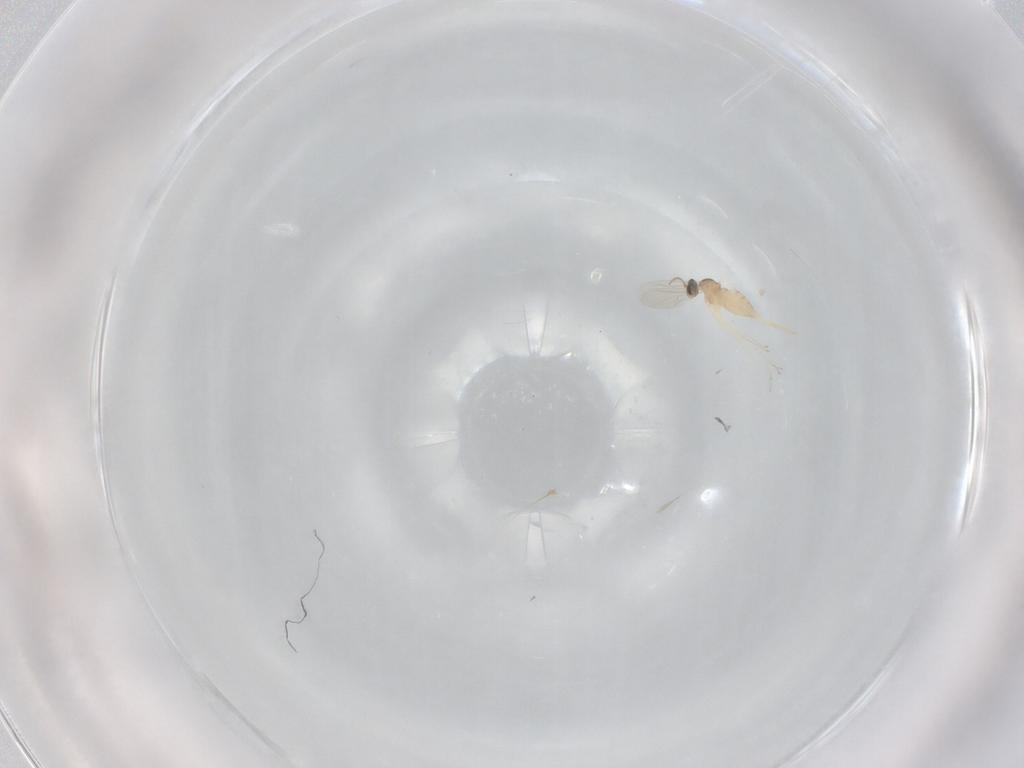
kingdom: Animalia
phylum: Arthropoda
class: Insecta
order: Diptera
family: Cecidomyiidae
